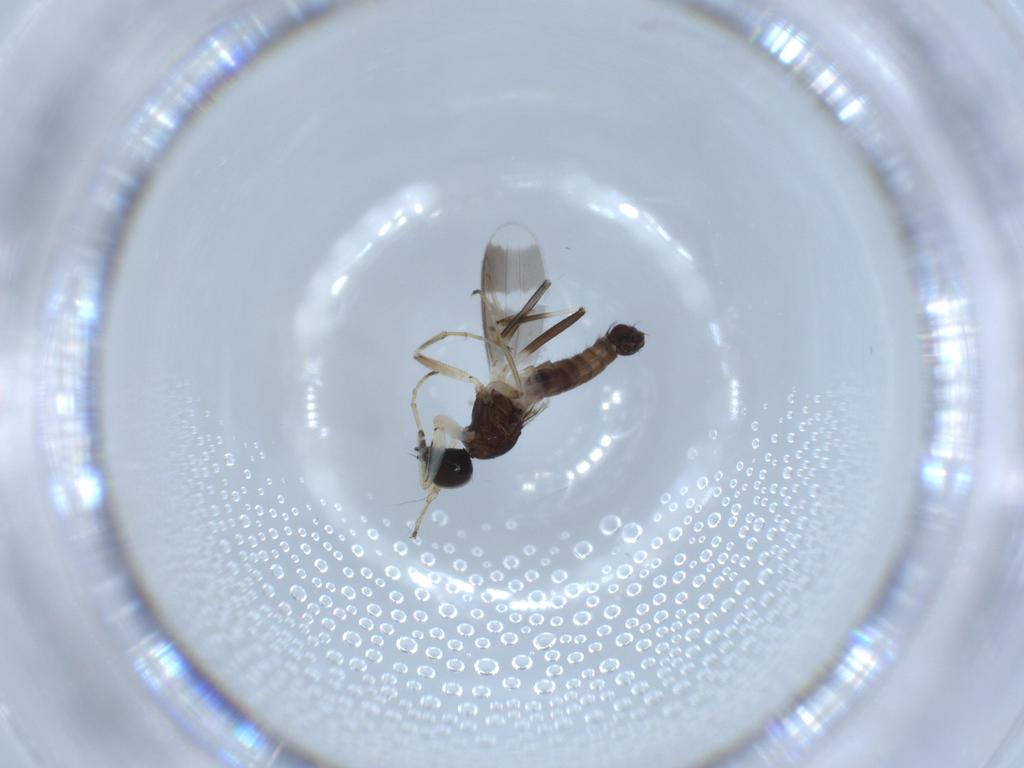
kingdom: Animalia
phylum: Arthropoda
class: Insecta
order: Diptera
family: Hybotidae
